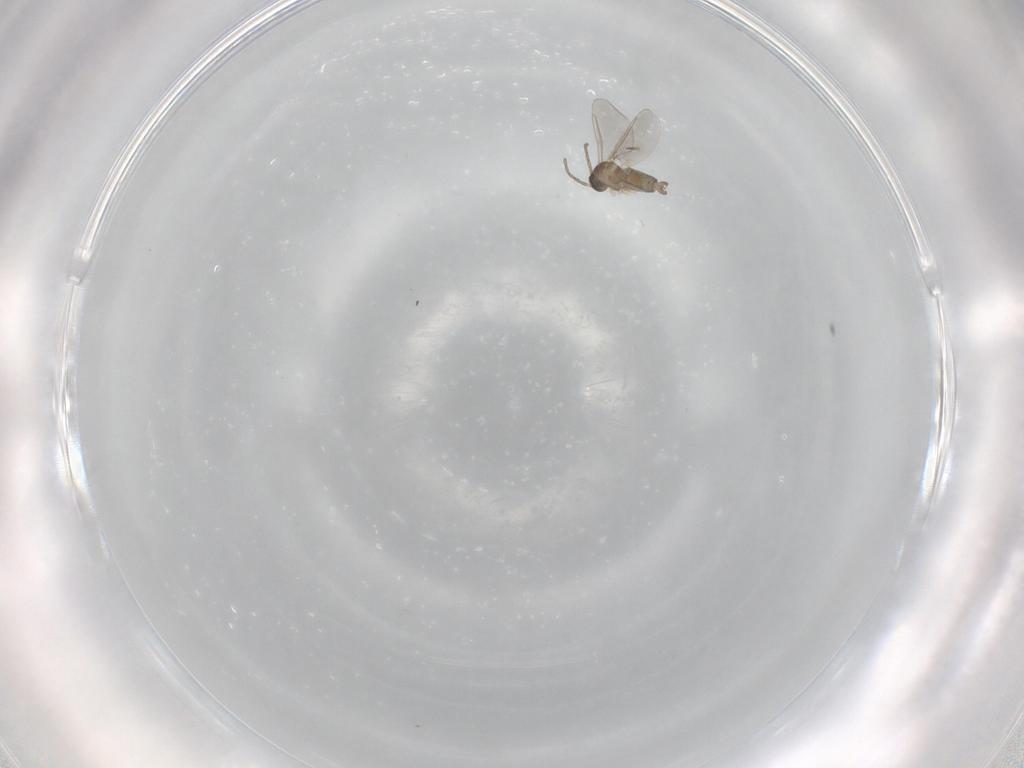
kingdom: Animalia
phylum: Arthropoda
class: Insecta
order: Diptera
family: Cecidomyiidae
